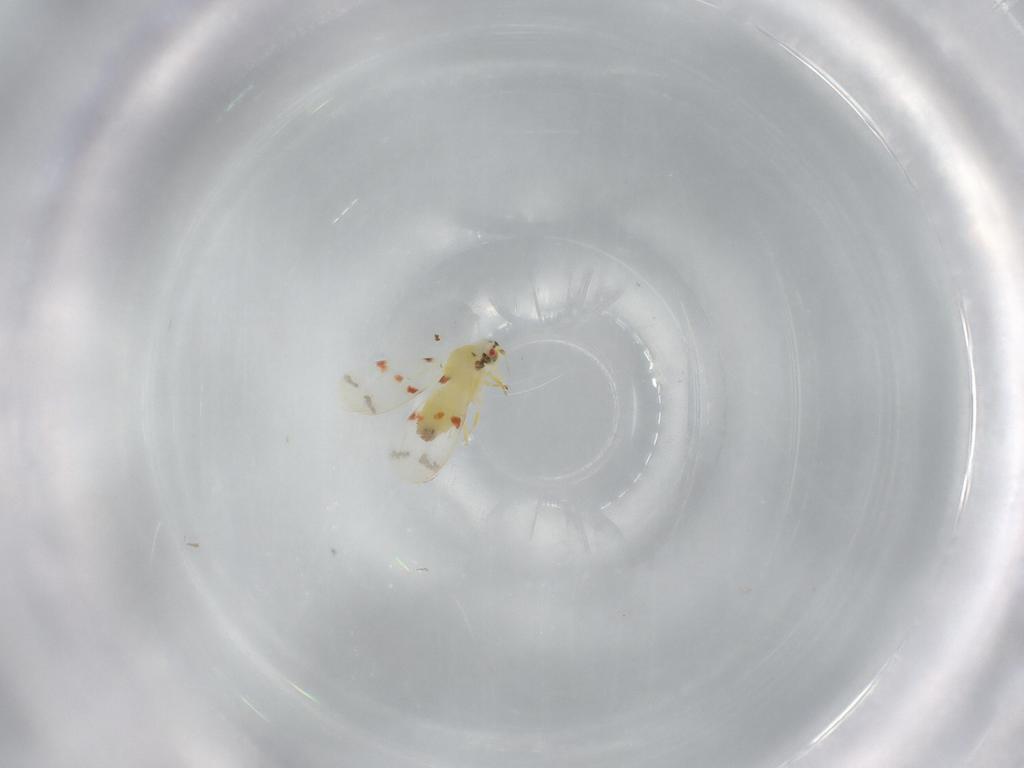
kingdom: Animalia
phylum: Arthropoda
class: Insecta
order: Hemiptera
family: Aleyrodidae
